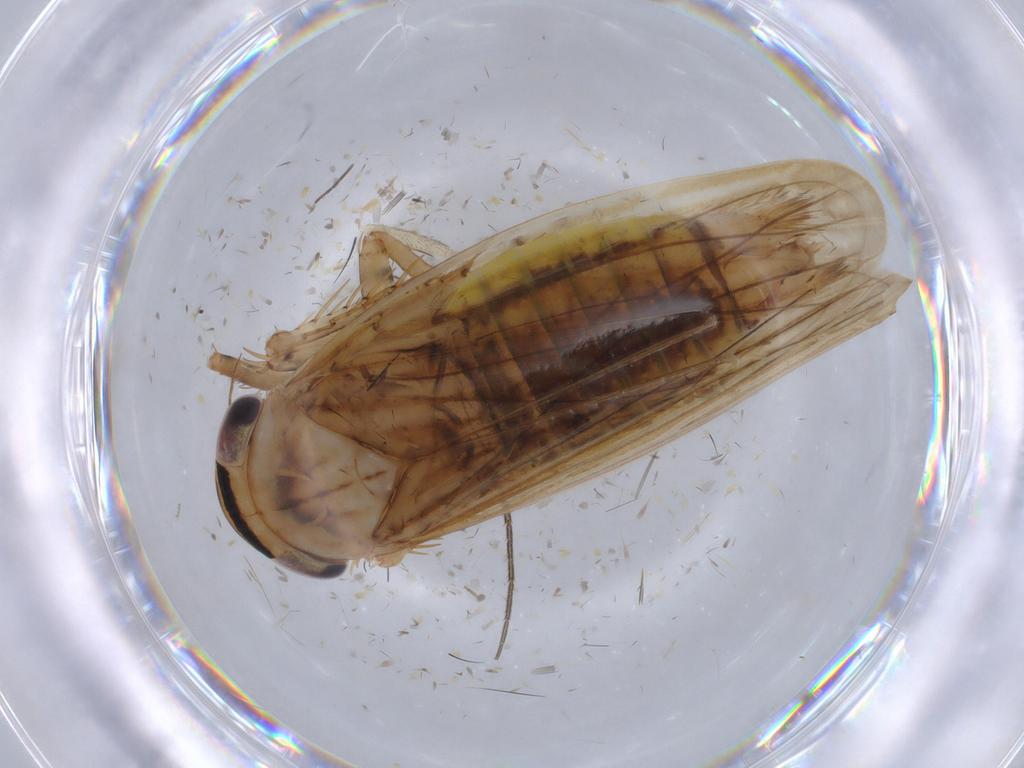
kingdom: Animalia
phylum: Arthropoda
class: Insecta
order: Hemiptera
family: Cicadellidae
